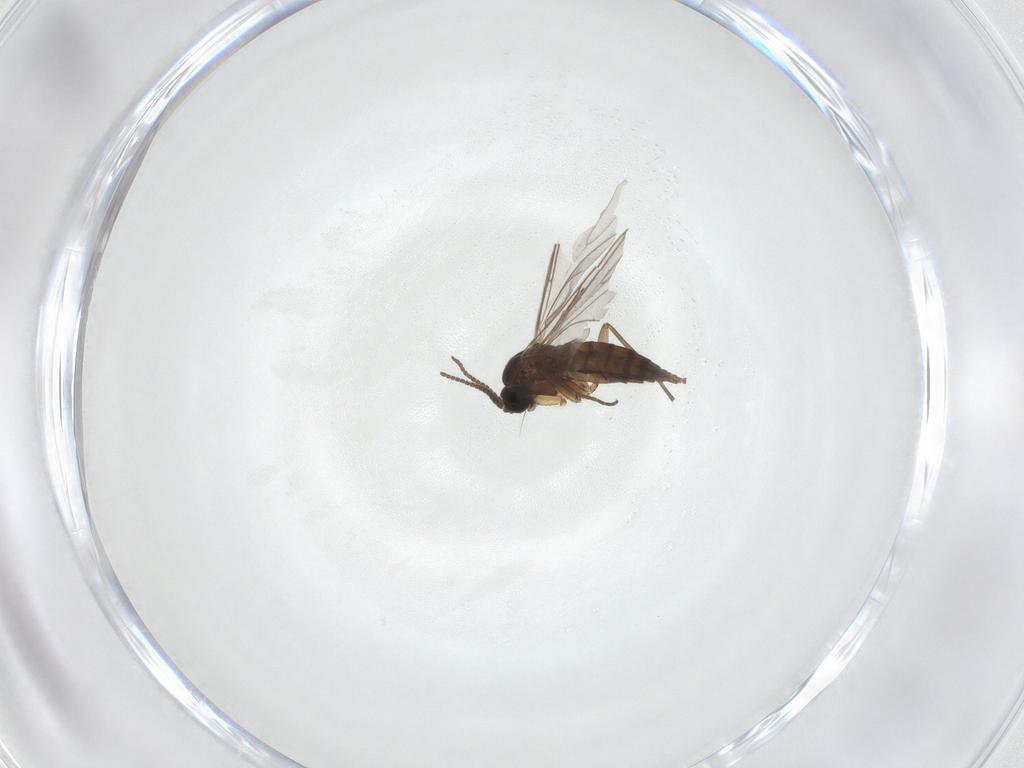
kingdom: Animalia
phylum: Arthropoda
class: Insecta
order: Diptera
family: Sciaridae
